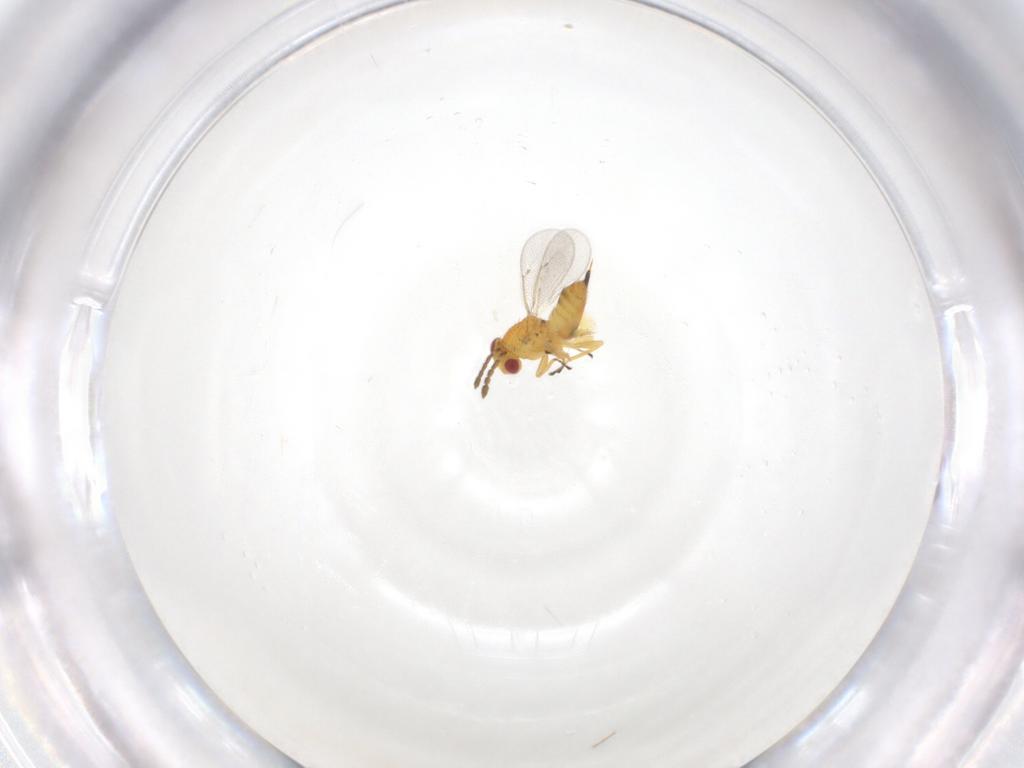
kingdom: Animalia
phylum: Arthropoda
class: Insecta
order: Hymenoptera
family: Eulophidae
